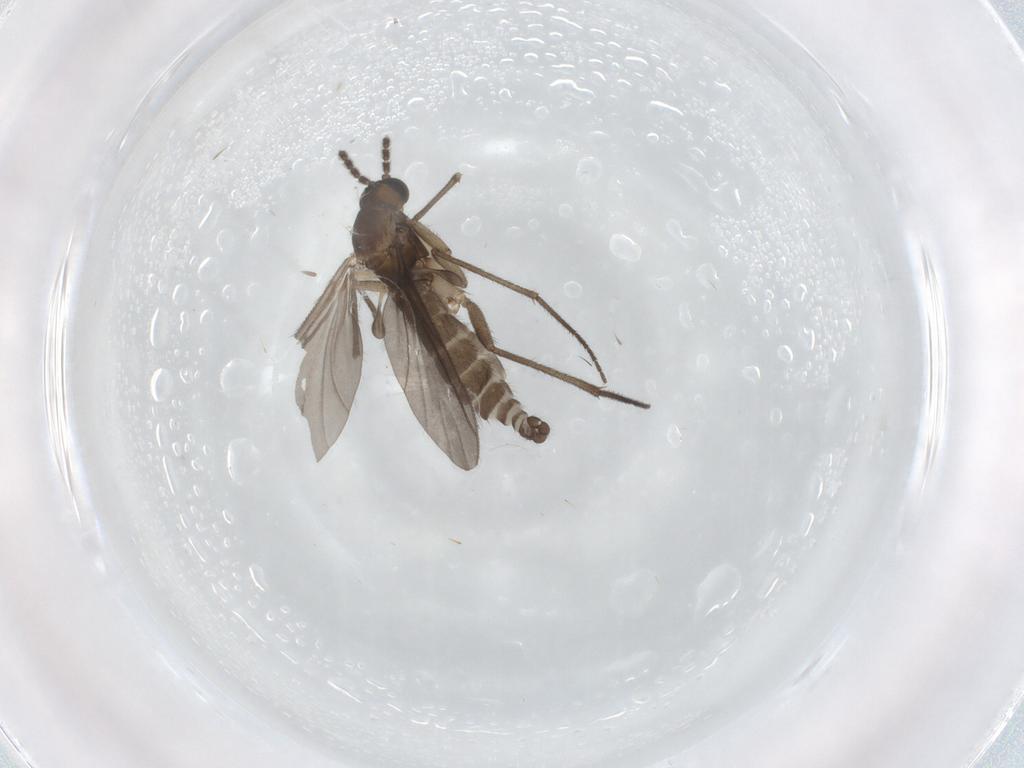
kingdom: Animalia
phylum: Arthropoda
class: Insecta
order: Diptera
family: Sciaridae
